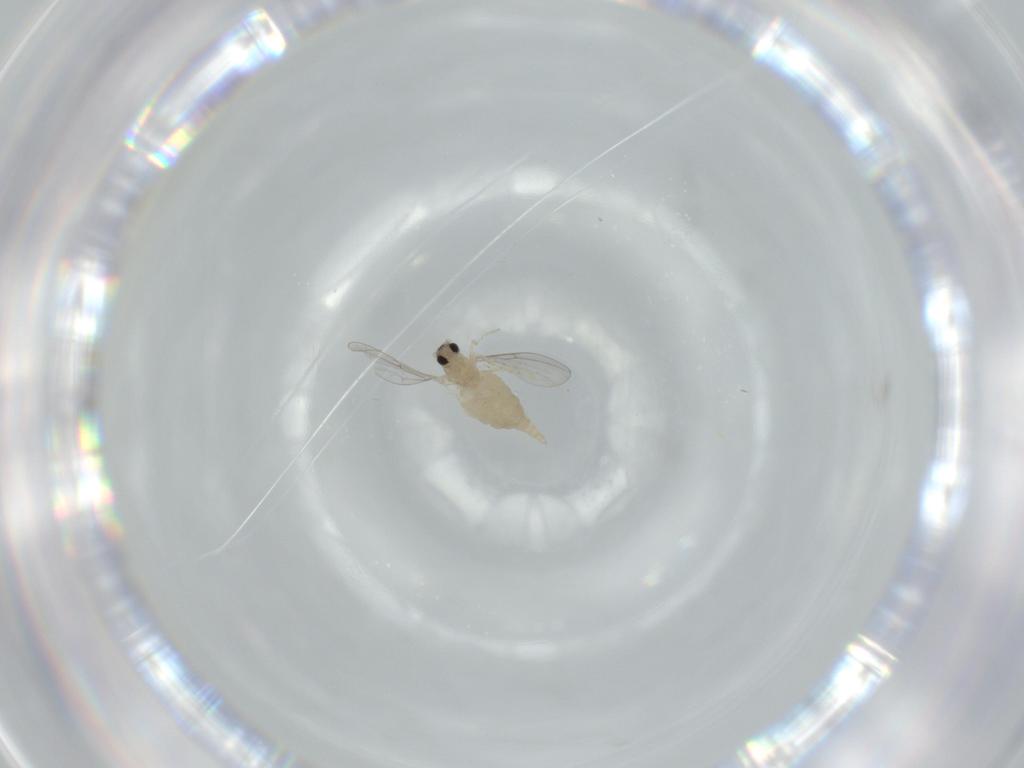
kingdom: Animalia
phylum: Arthropoda
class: Insecta
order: Diptera
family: Cecidomyiidae
